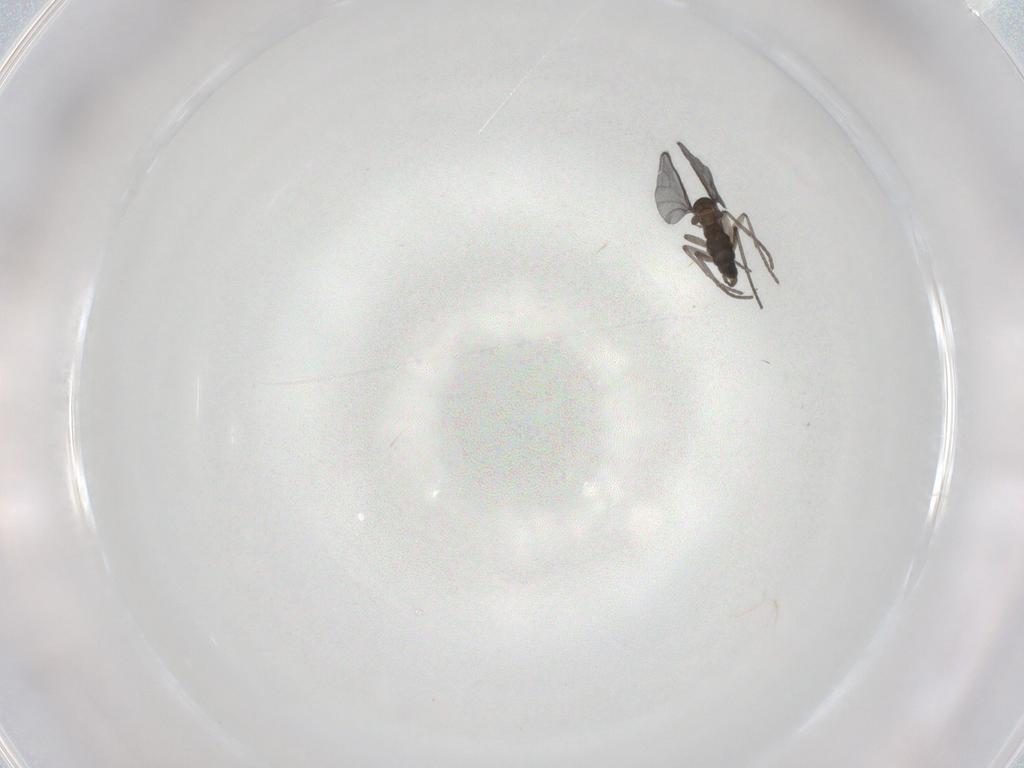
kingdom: Animalia
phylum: Arthropoda
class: Insecta
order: Diptera
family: Sciaridae
